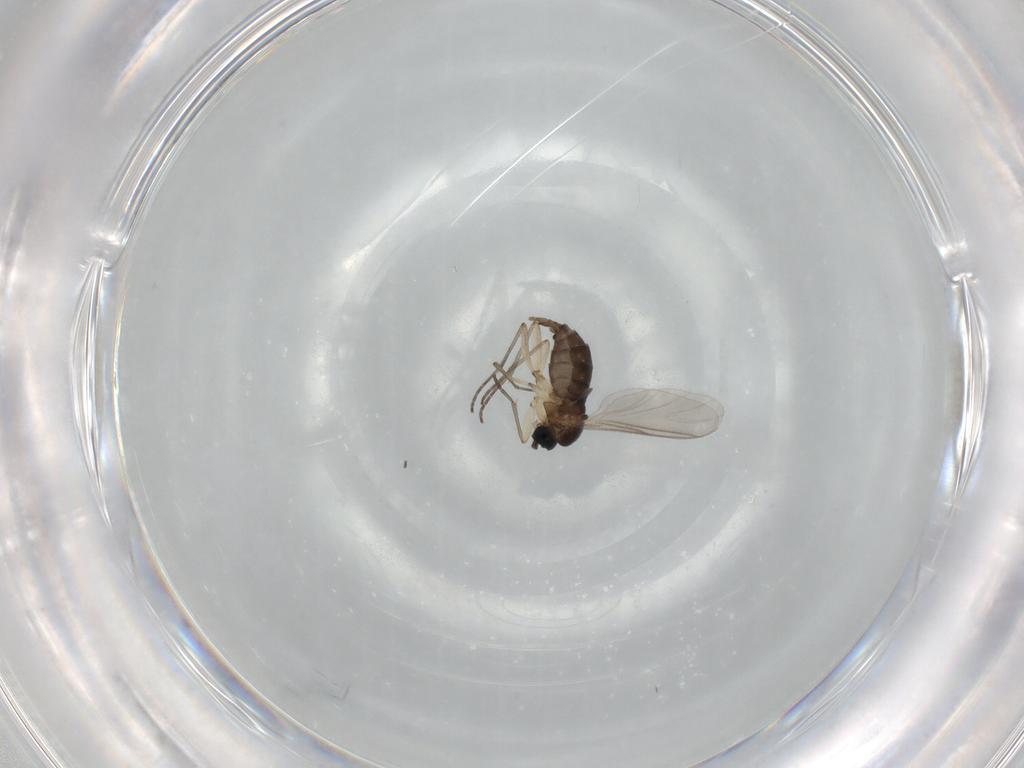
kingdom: Animalia
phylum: Arthropoda
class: Insecta
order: Diptera
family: Sciaridae
